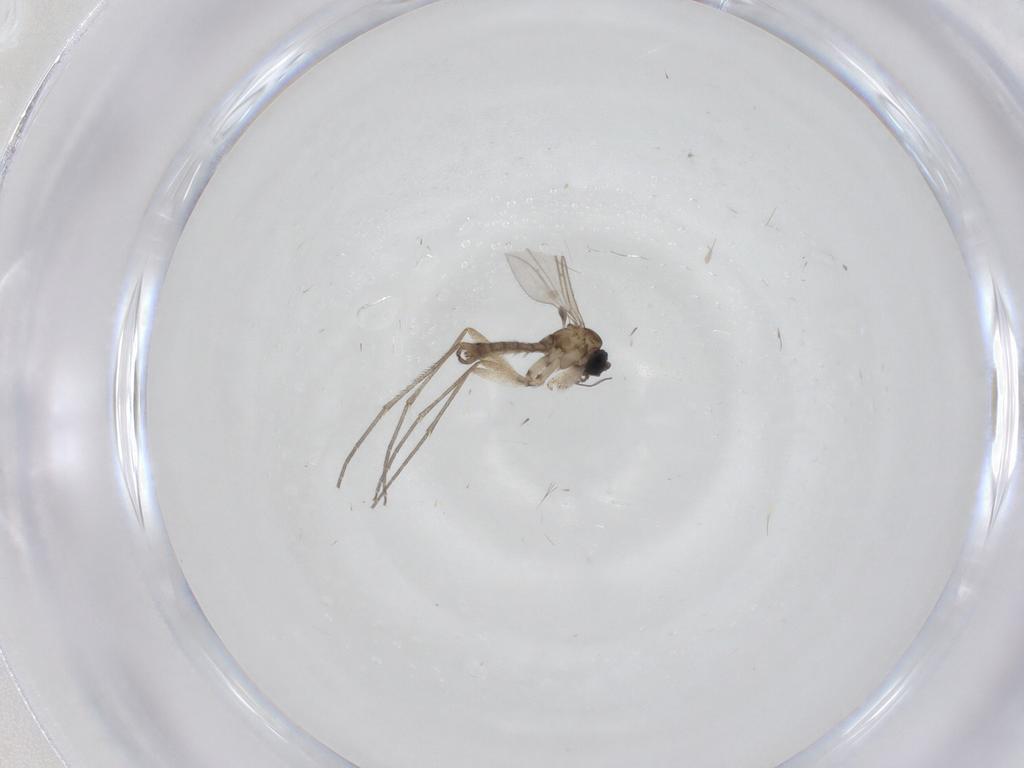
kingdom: Animalia
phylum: Arthropoda
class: Insecta
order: Diptera
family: Sciaridae
